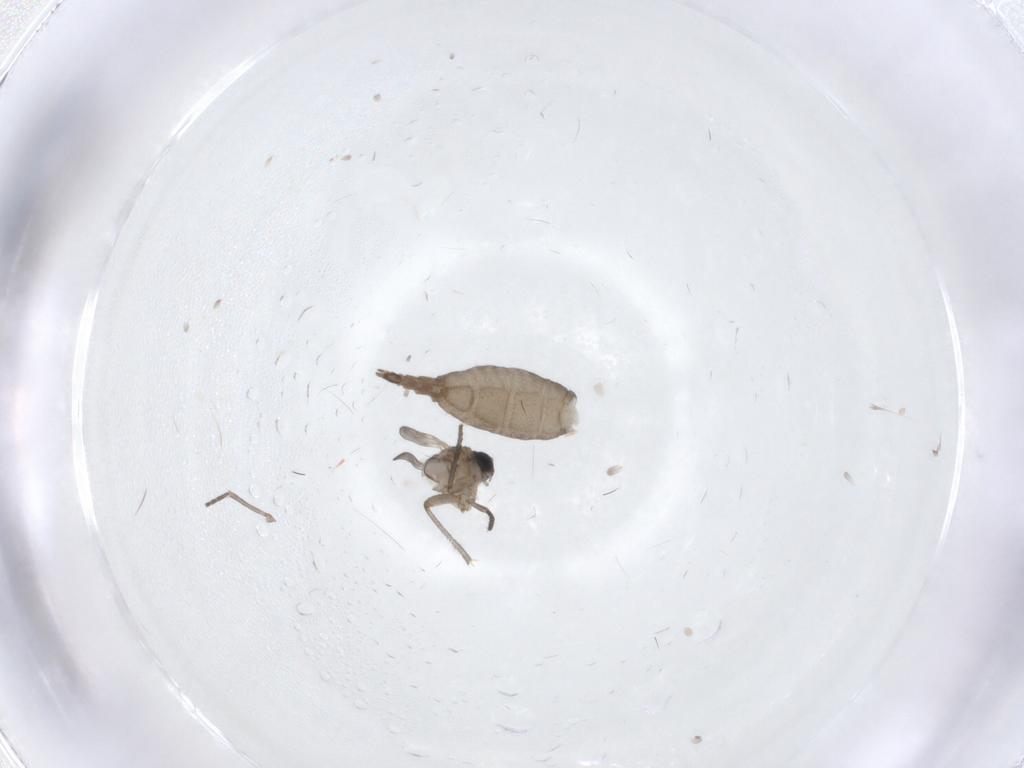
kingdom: Animalia
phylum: Arthropoda
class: Insecta
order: Diptera
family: Sciaridae
